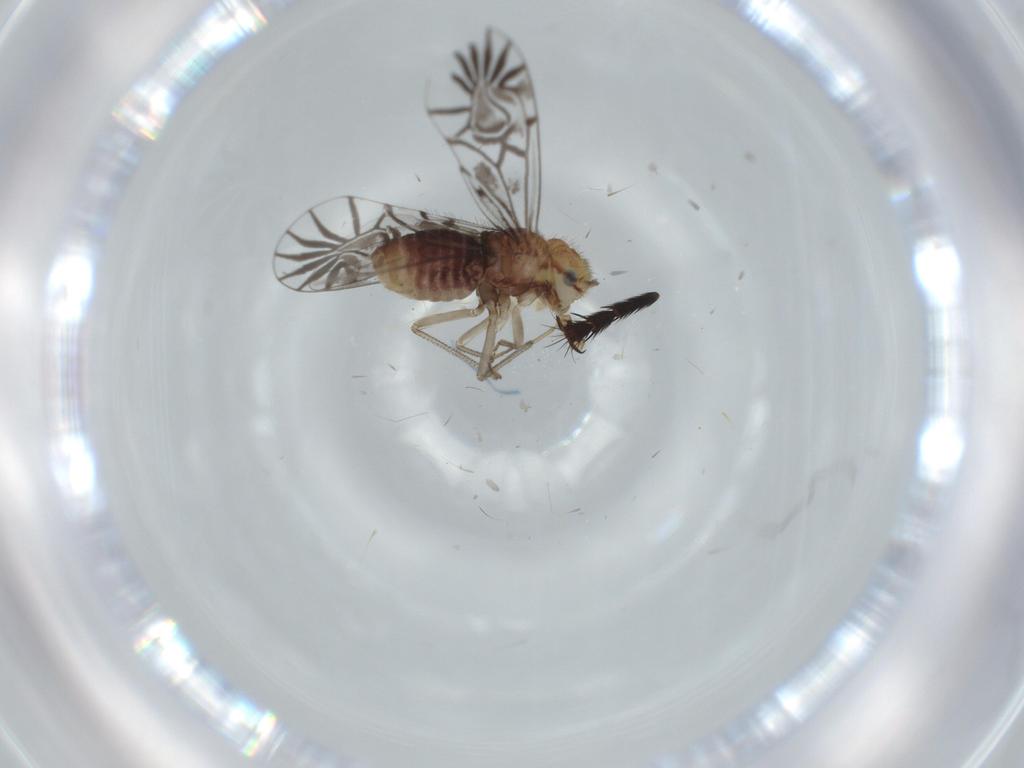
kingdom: Animalia
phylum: Arthropoda
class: Insecta
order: Psocodea
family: Amphipsocidae
